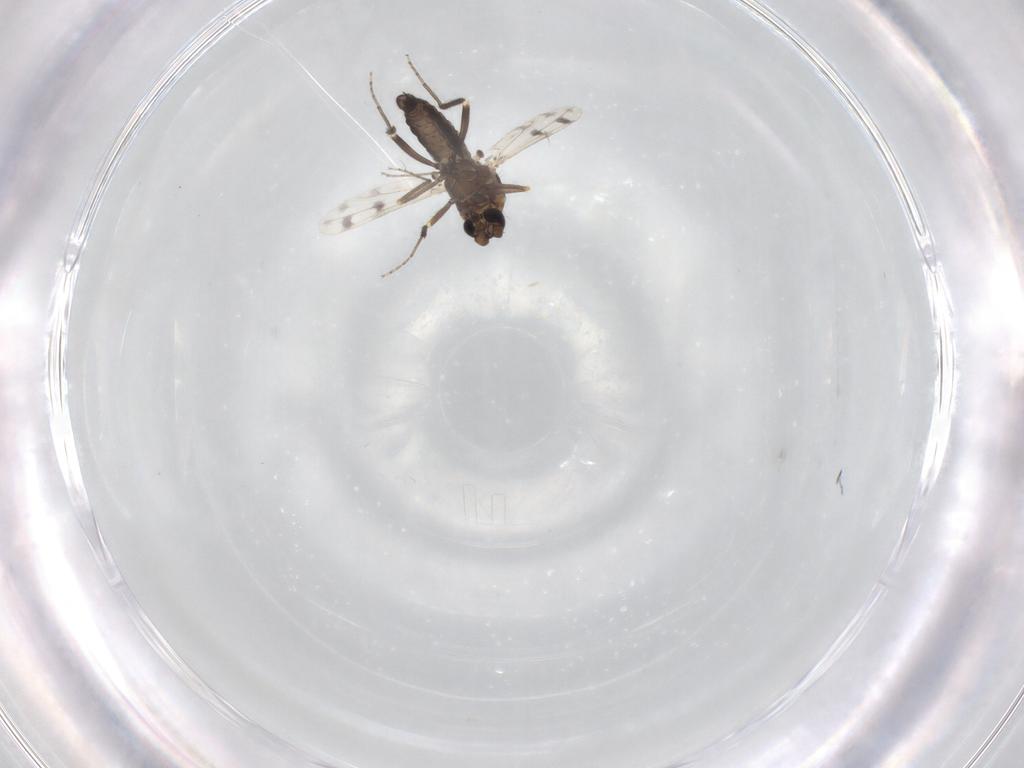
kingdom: Animalia
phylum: Arthropoda
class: Insecta
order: Diptera
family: Ceratopogonidae
